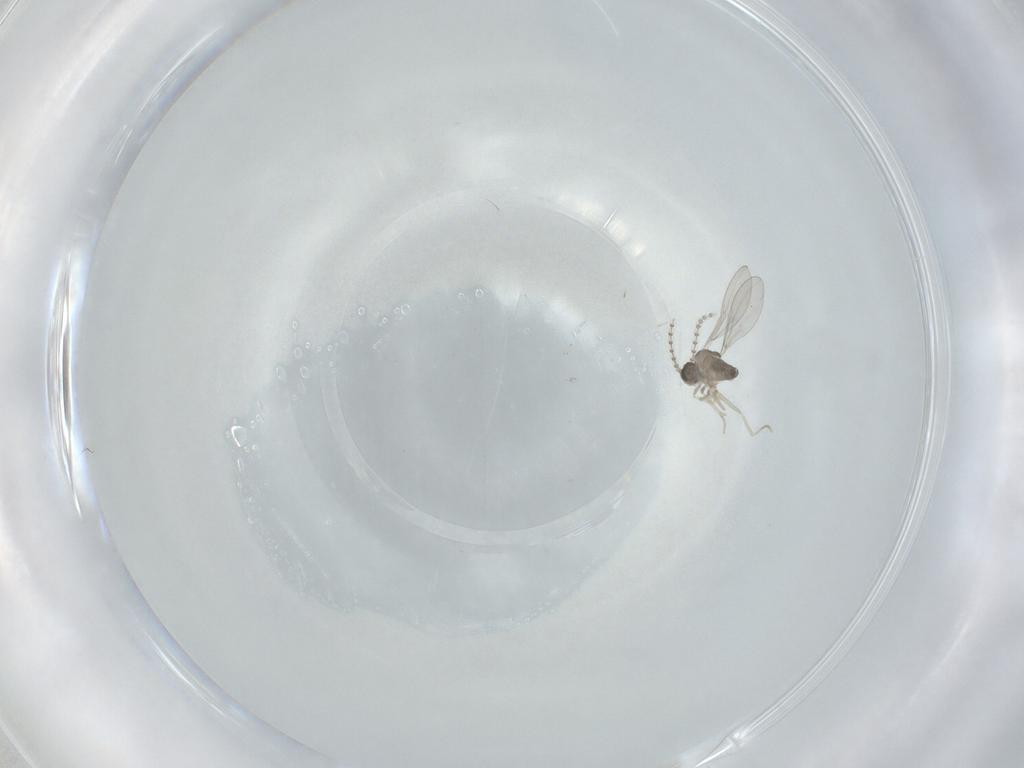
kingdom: Animalia
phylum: Arthropoda
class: Insecta
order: Diptera
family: Cecidomyiidae
